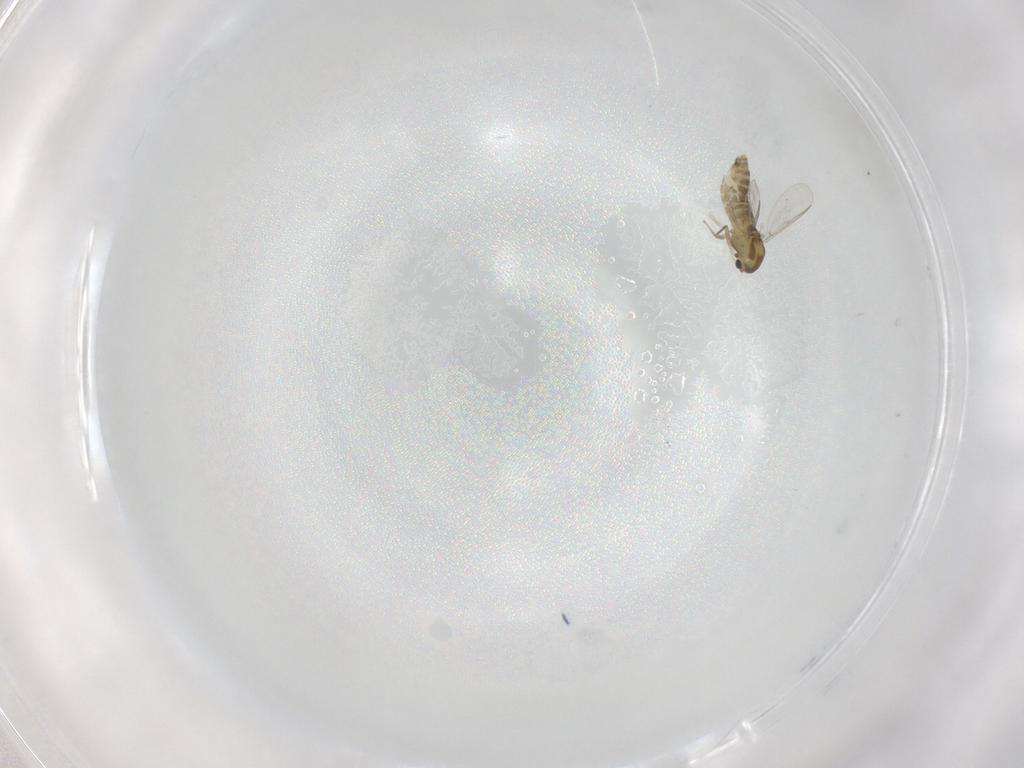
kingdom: Animalia
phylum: Arthropoda
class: Insecta
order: Diptera
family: Chironomidae
